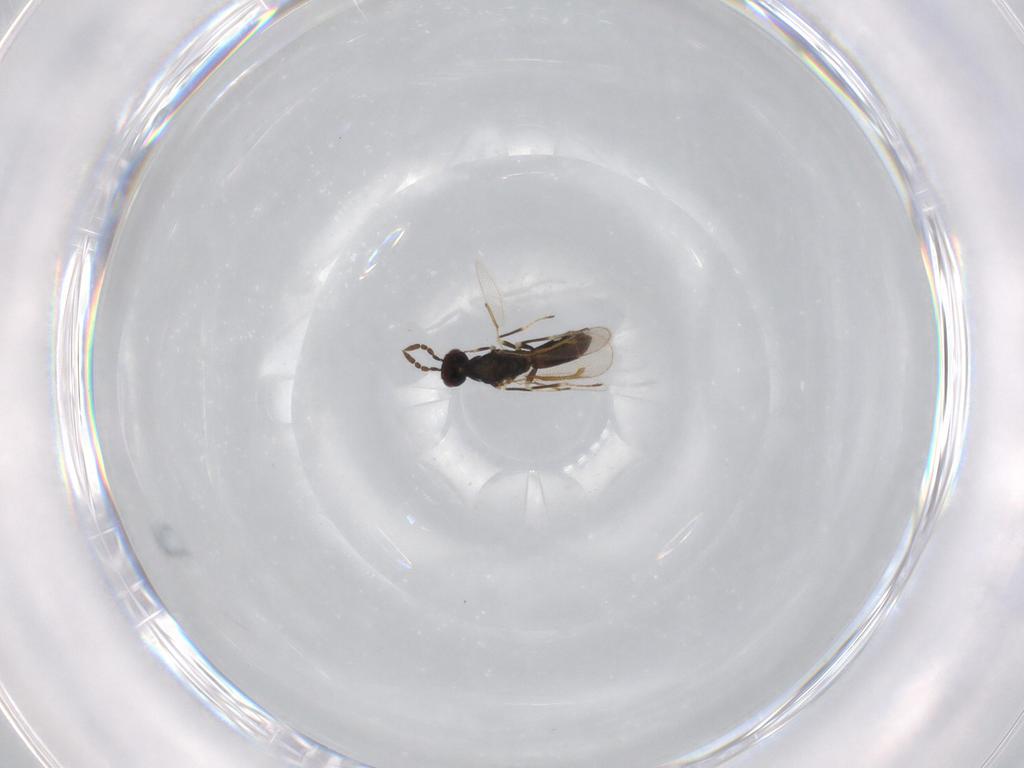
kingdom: Animalia
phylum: Arthropoda
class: Insecta
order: Hymenoptera
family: Eulophidae
